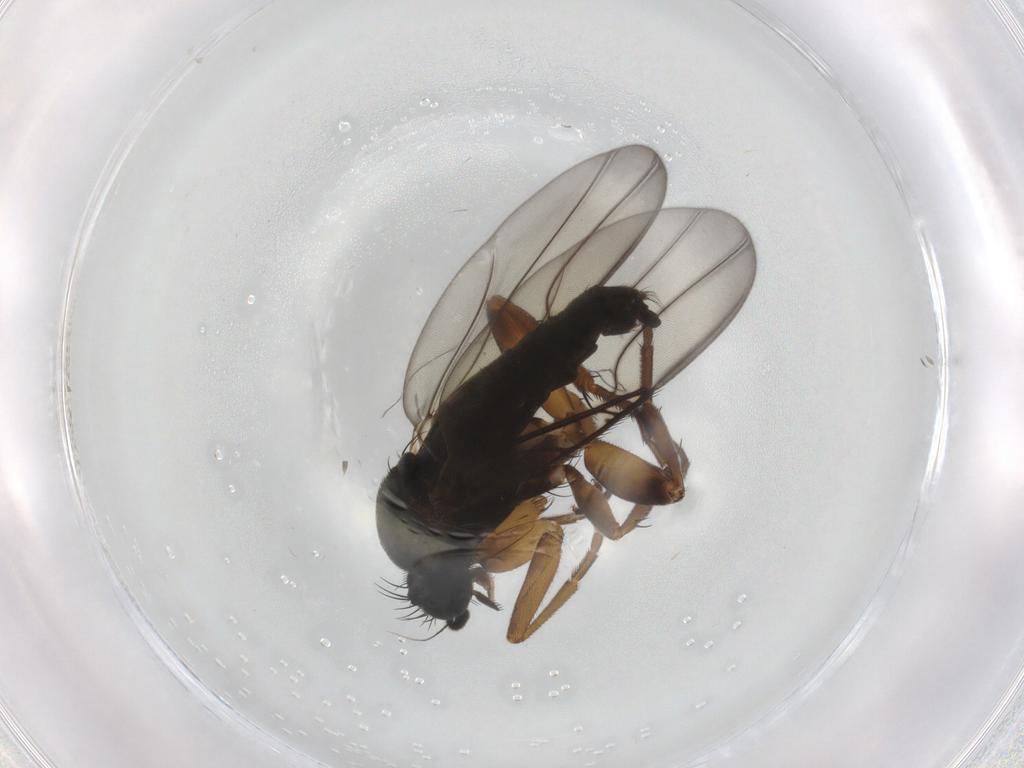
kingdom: Animalia
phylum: Arthropoda
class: Insecta
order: Diptera
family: Phoridae
